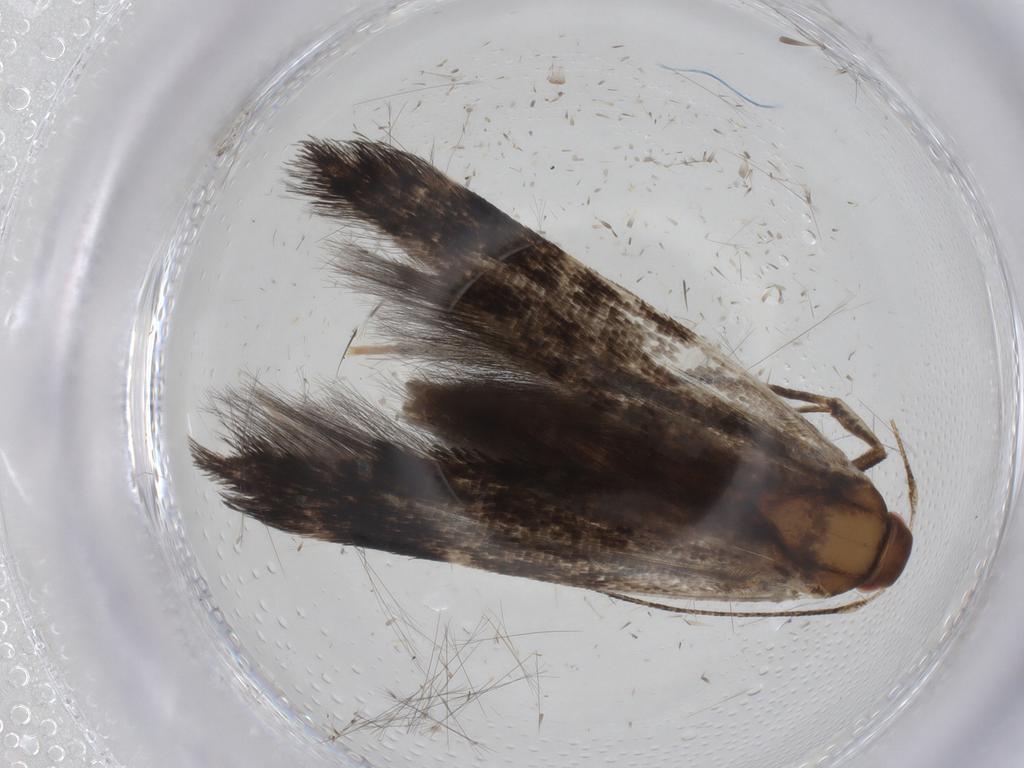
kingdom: Animalia
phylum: Arthropoda
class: Insecta
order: Lepidoptera
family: Cosmopterigidae
